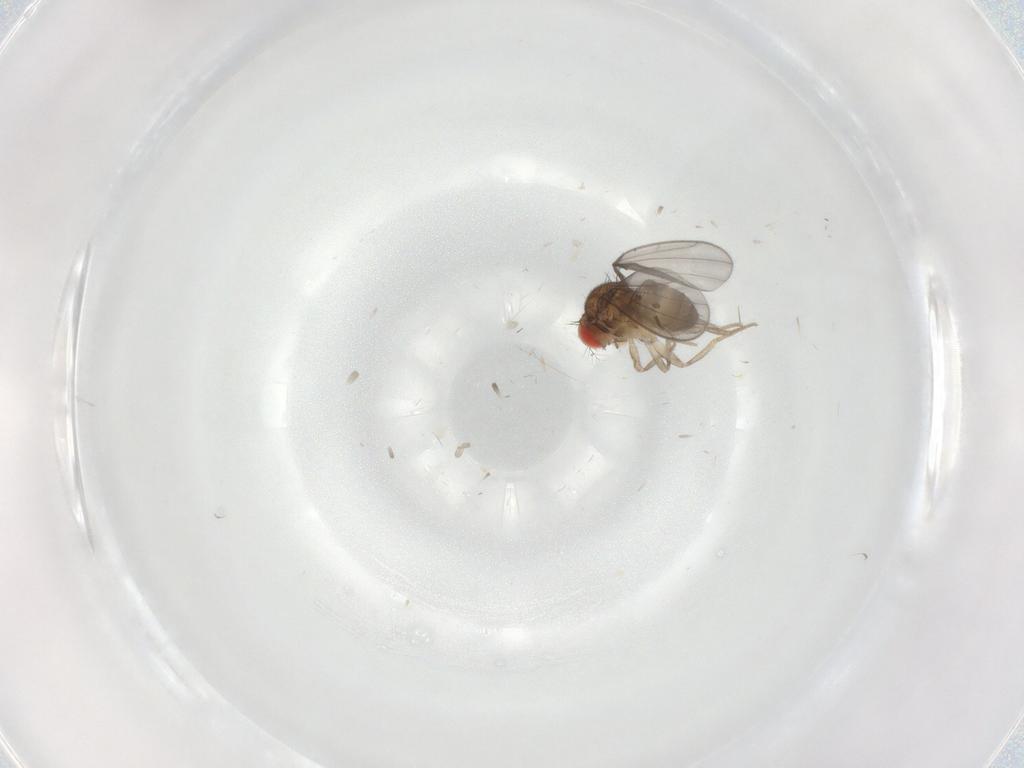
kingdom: Animalia
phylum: Arthropoda
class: Insecta
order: Diptera
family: Drosophilidae
